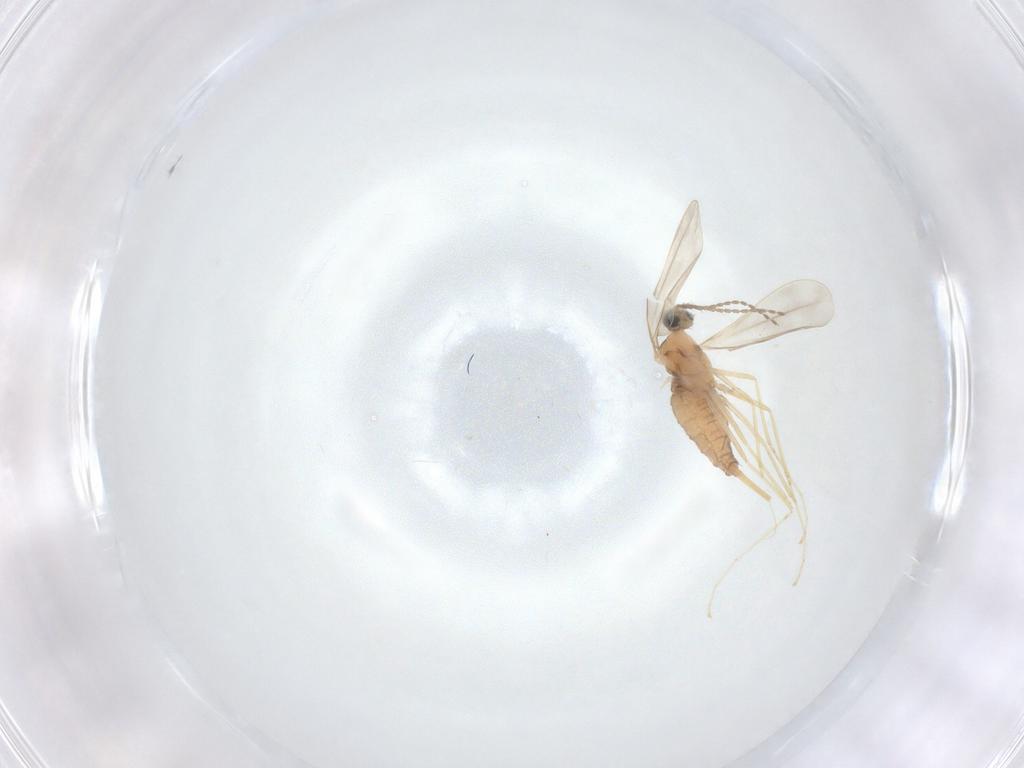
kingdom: Animalia
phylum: Arthropoda
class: Insecta
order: Diptera
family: Cecidomyiidae
